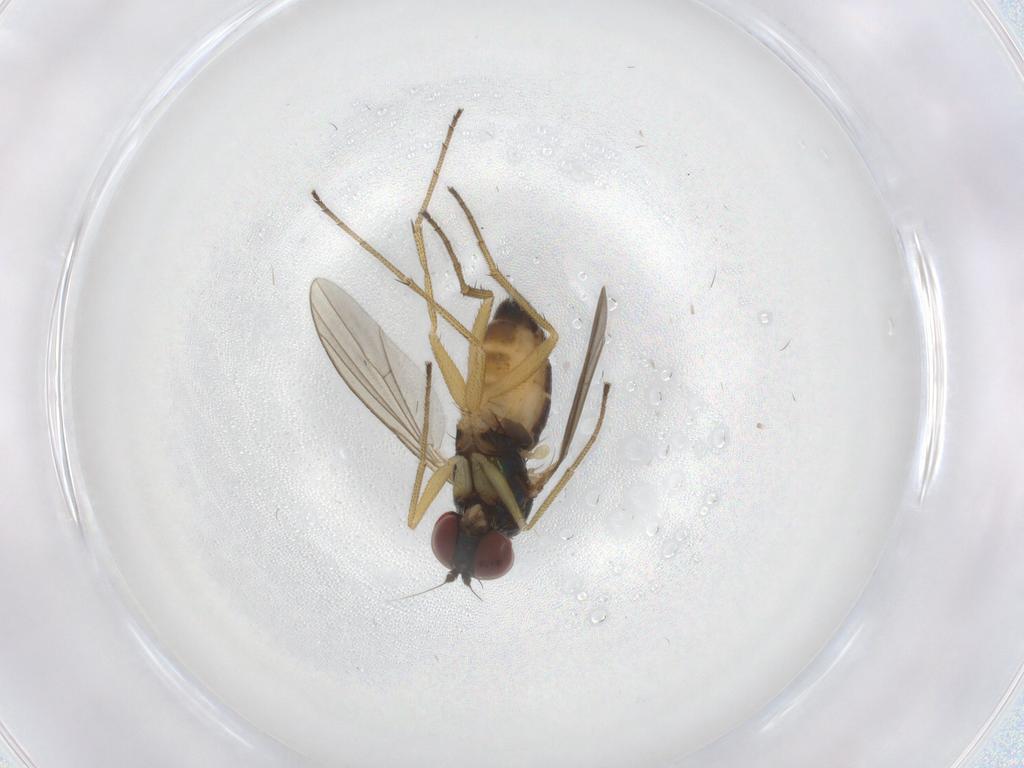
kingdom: Animalia
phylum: Arthropoda
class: Insecta
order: Diptera
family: Dolichopodidae
